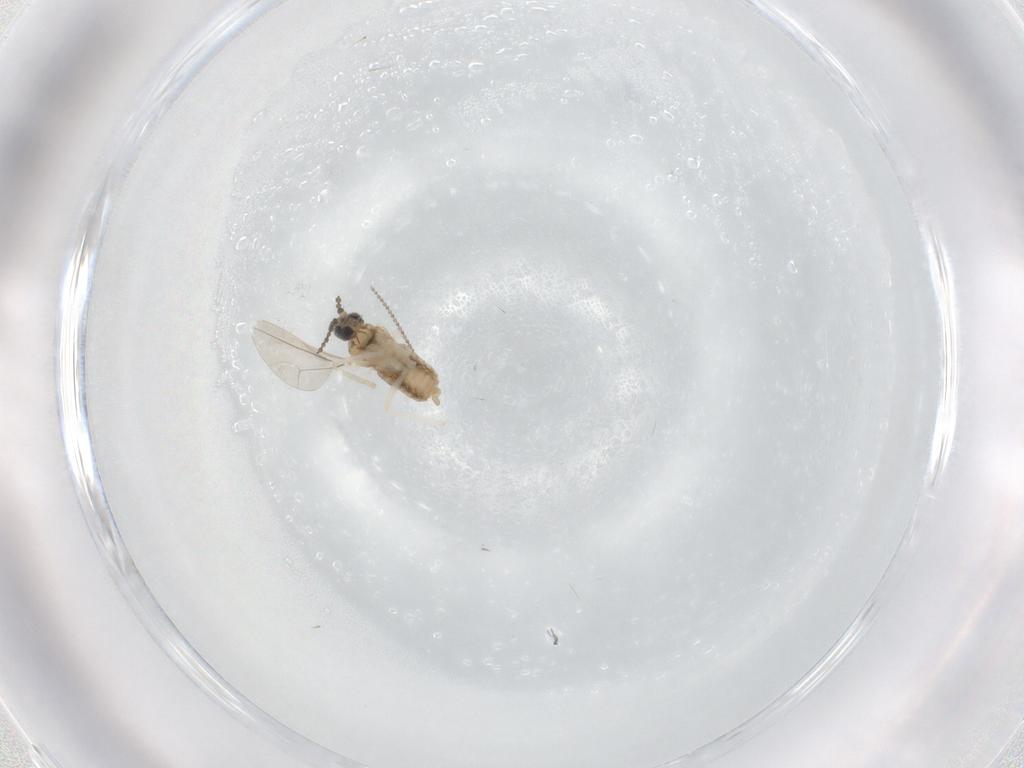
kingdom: Animalia
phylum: Arthropoda
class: Insecta
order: Diptera
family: Cecidomyiidae
